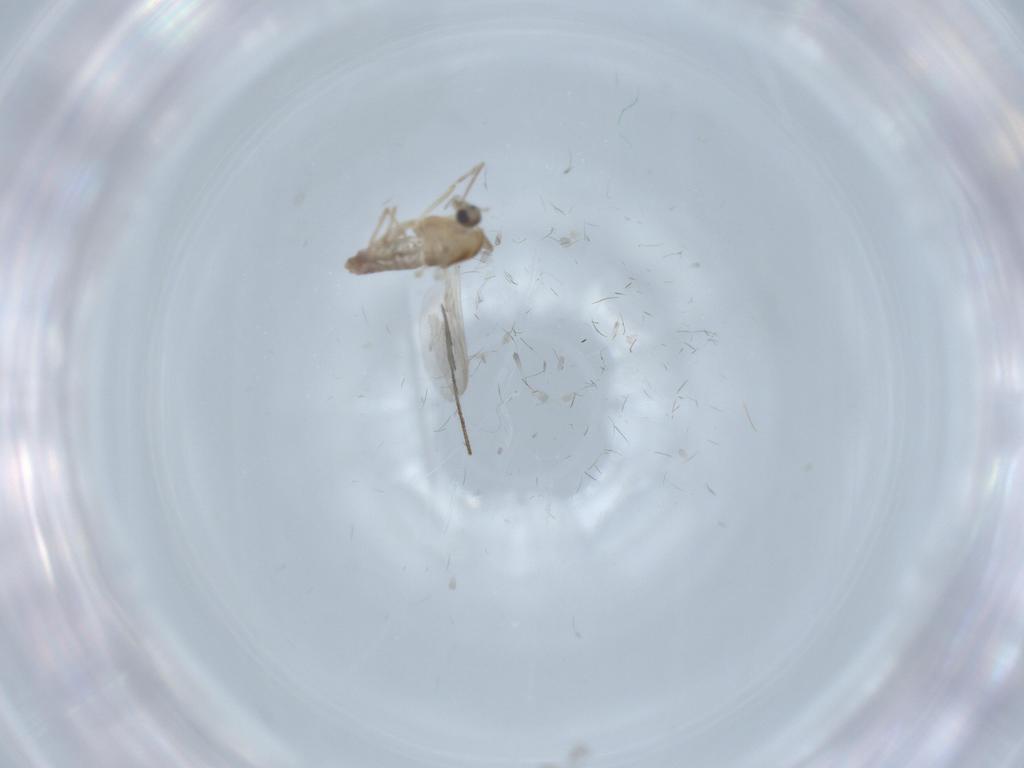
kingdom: Animalia
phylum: Arthropoda
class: Insecta
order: Diptera
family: Chironomidae
